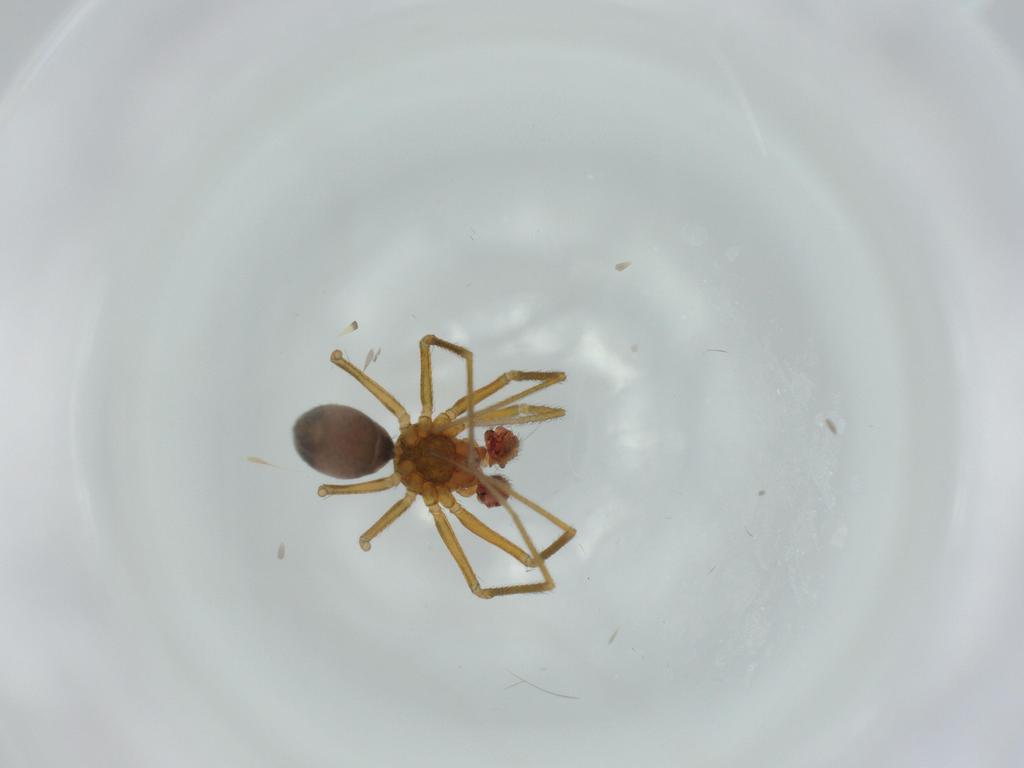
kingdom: Animalia
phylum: Arthropoda
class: Arachnida
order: Araneae
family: Linyphiidae
